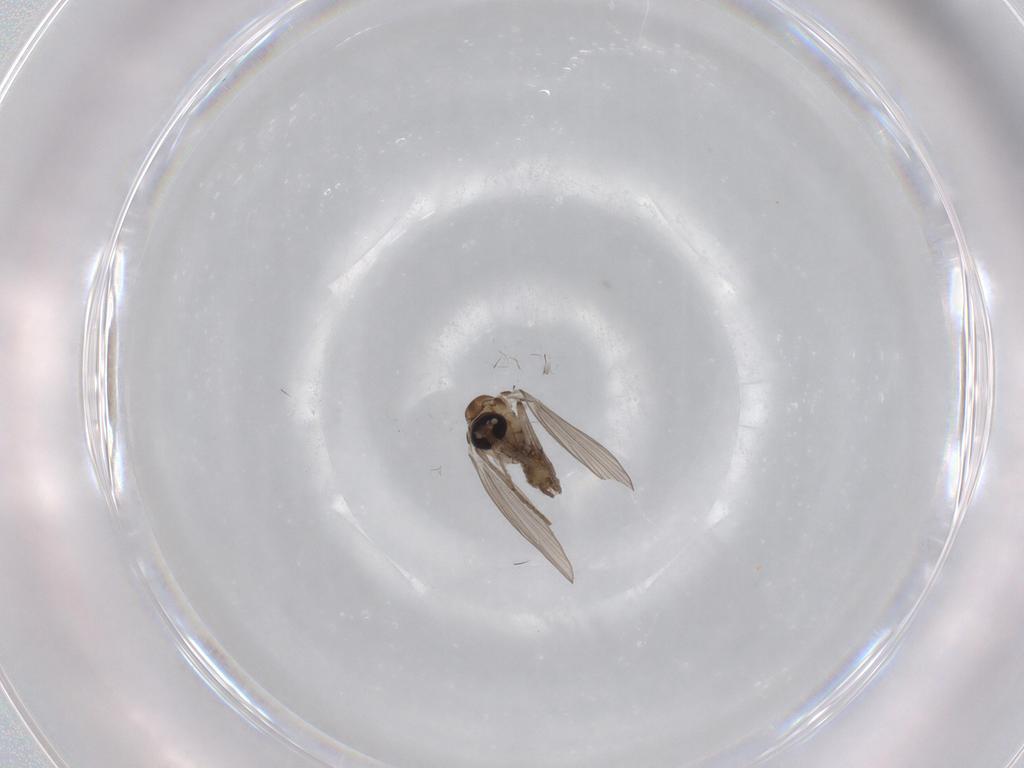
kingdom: Animalia
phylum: Arthropoda
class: Insecta
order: Diptera
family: Psychodidae
